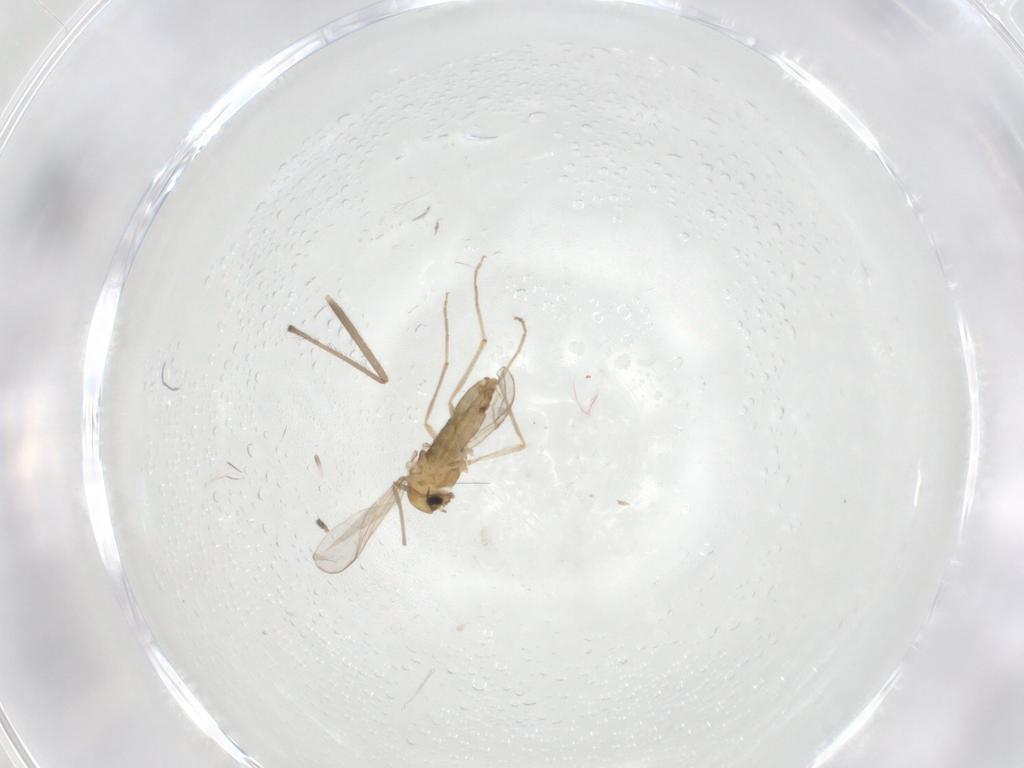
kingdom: Animalia
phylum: Arthropoda
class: Insecta
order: Diptera
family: Chironomidae
